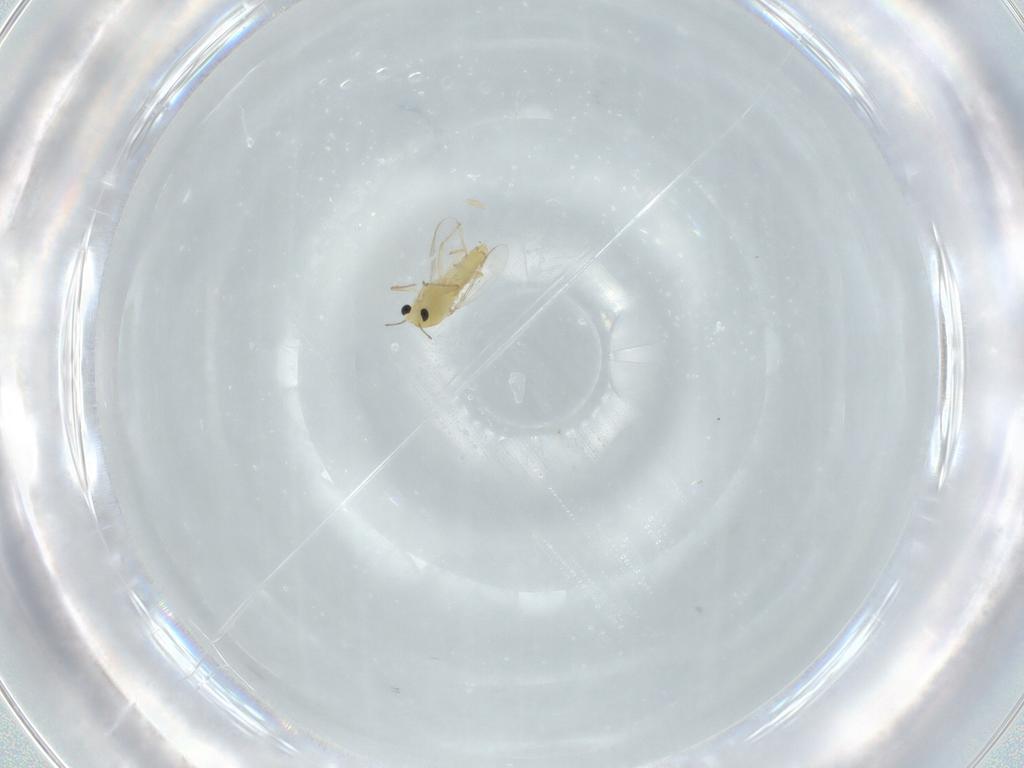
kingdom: Animalia
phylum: Arthropoda
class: Insecta
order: Diptera
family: Chironomidae
